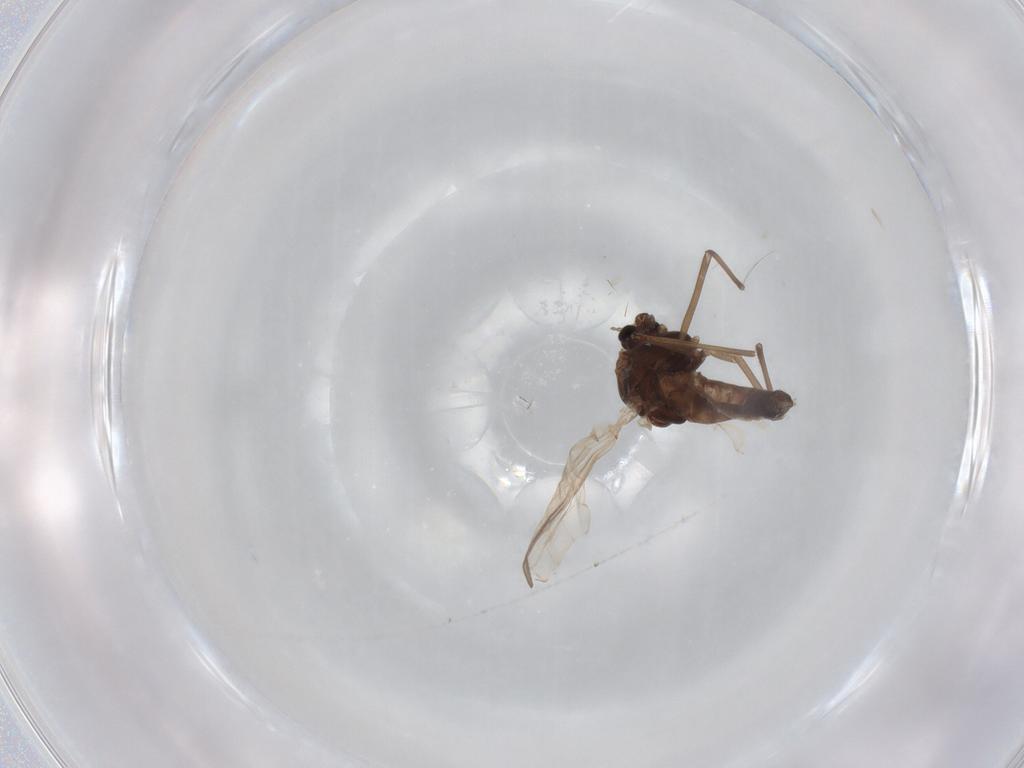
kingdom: Animalia
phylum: Arthropoda
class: Insecta
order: Diptera
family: Chironomidae
